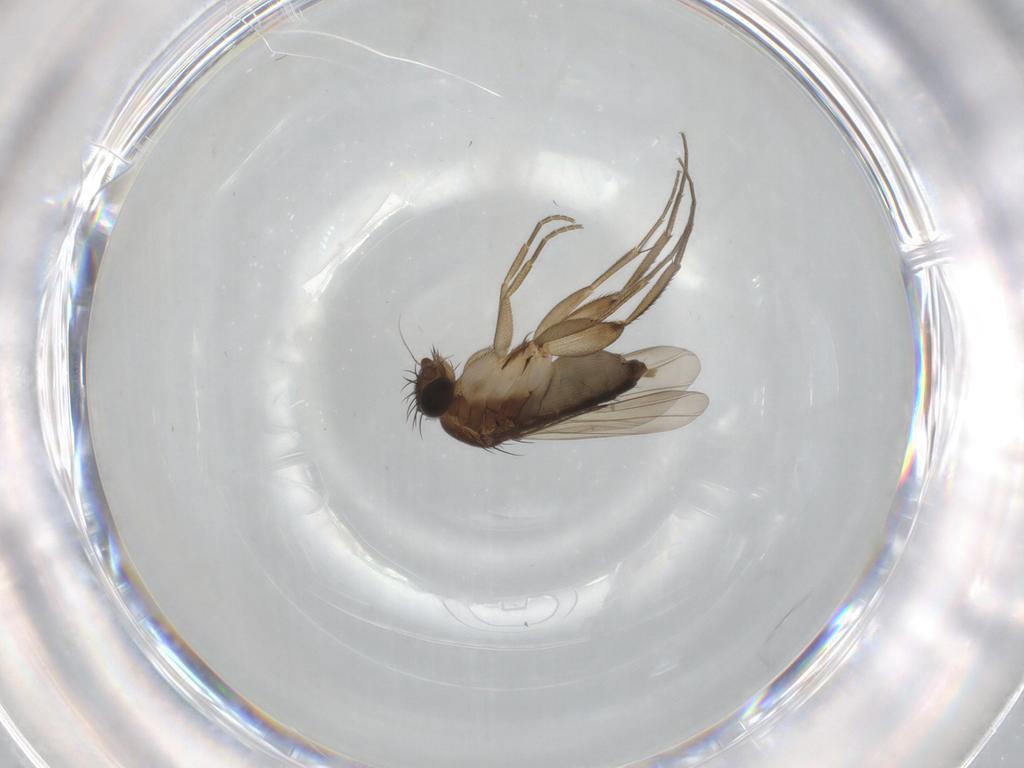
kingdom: Animalia
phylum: Arthropoda
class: Insecta
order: Diptera
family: Phoridae
